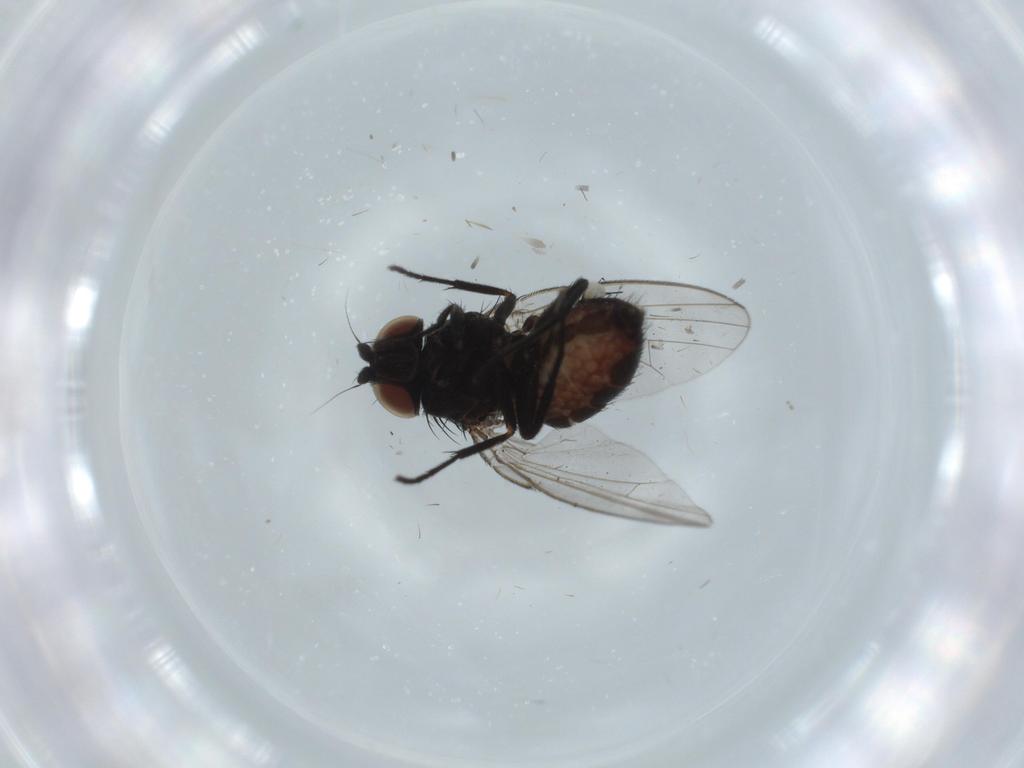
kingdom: Animalia
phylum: Arthropoda
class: Insecta
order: Diptera
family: Milichiidae
